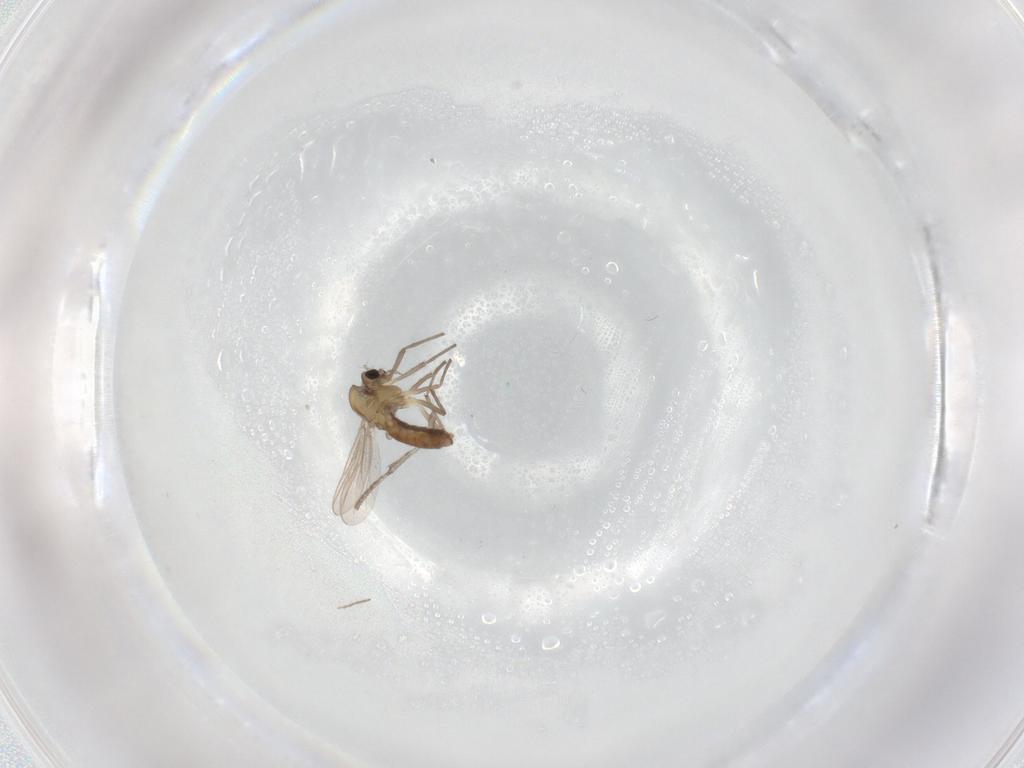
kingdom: Animalia
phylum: Arthropoda
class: Insecta
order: Diptera
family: Chironomidae
